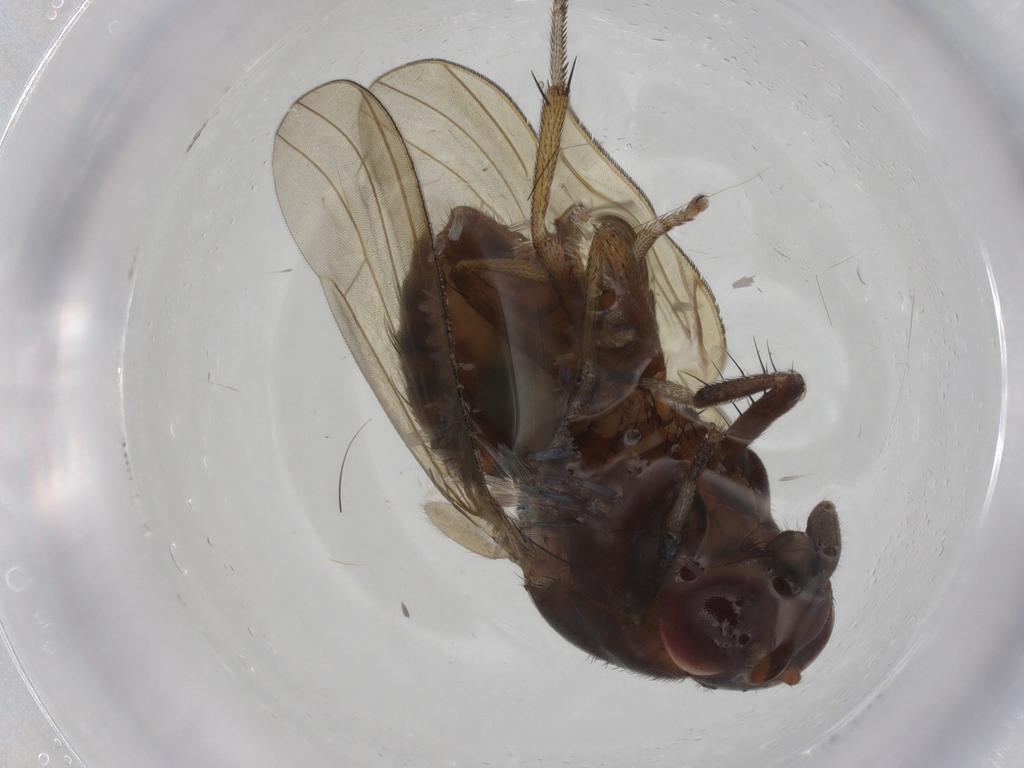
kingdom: Animalia
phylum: Arthropoda
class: Insecta
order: Diptera
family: Chironomidae
